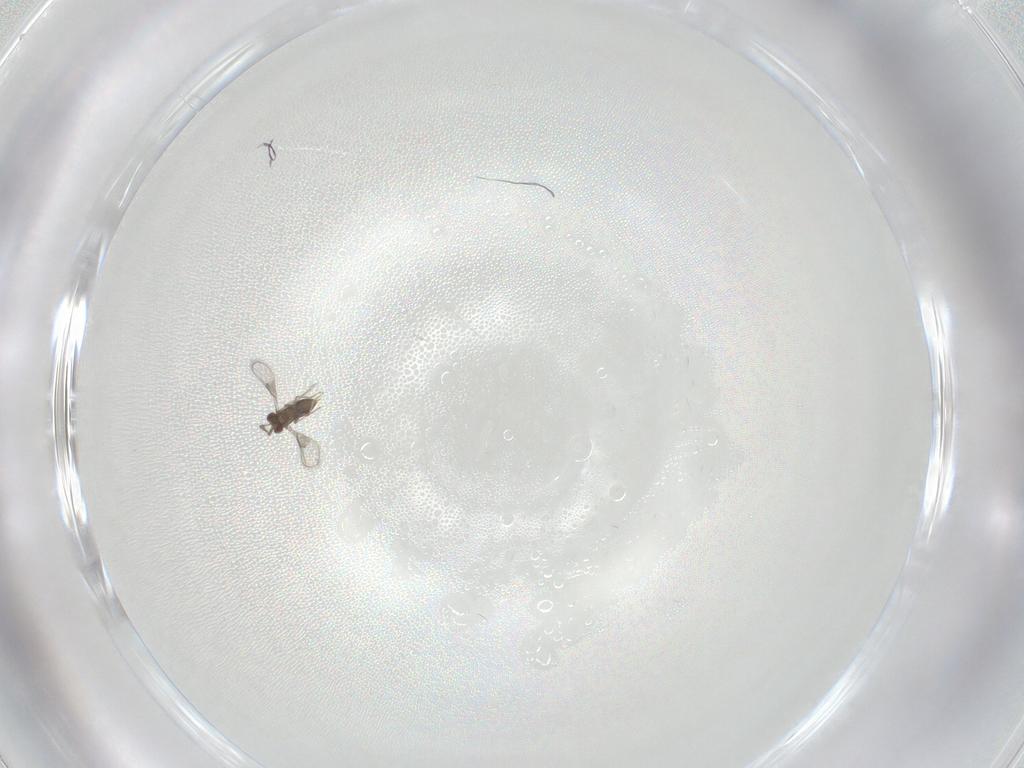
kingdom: Animalia
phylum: Arthropoda
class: Insecta
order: Hymenoptera
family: Trichogrammatidae
